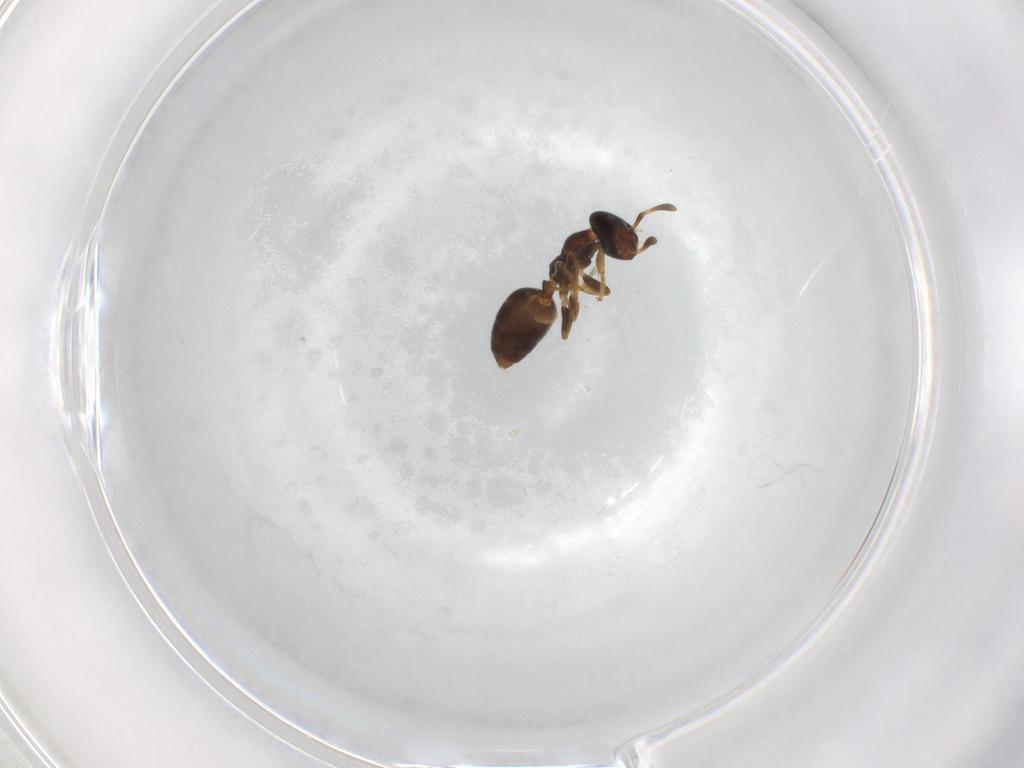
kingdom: Animalia
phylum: Arthropoda
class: Insecta
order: Hymenoptera
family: Formicidae
